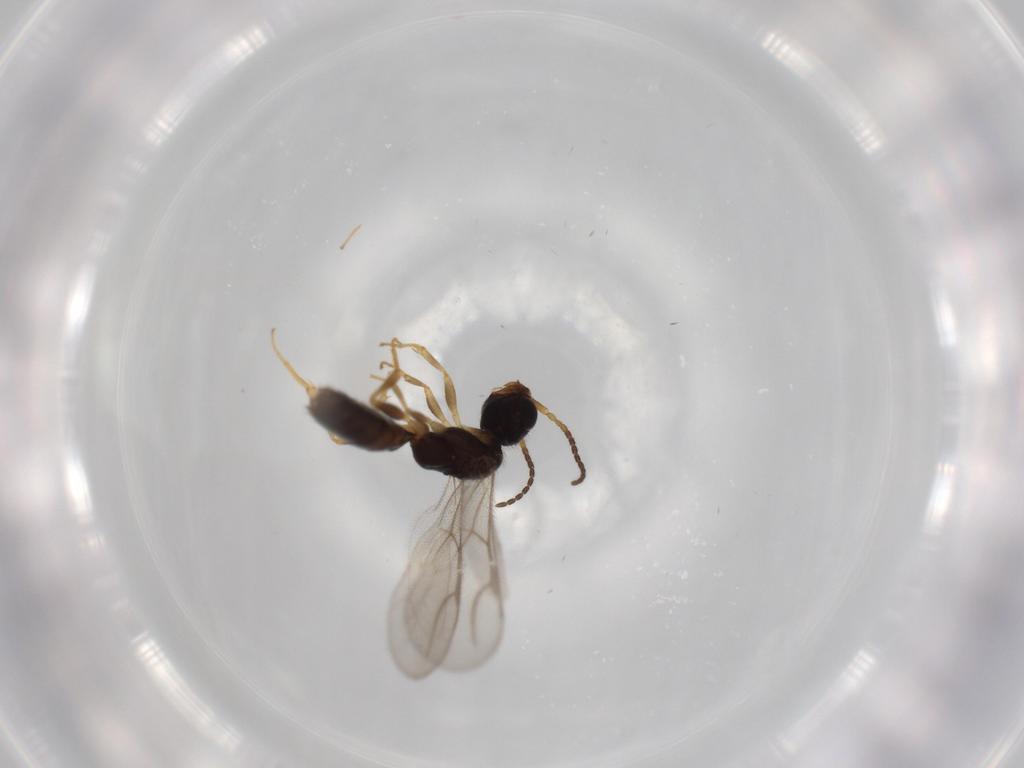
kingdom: Animalia
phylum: Arthropoda
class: Insecta
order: Hymenoptera
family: Bethylidae
